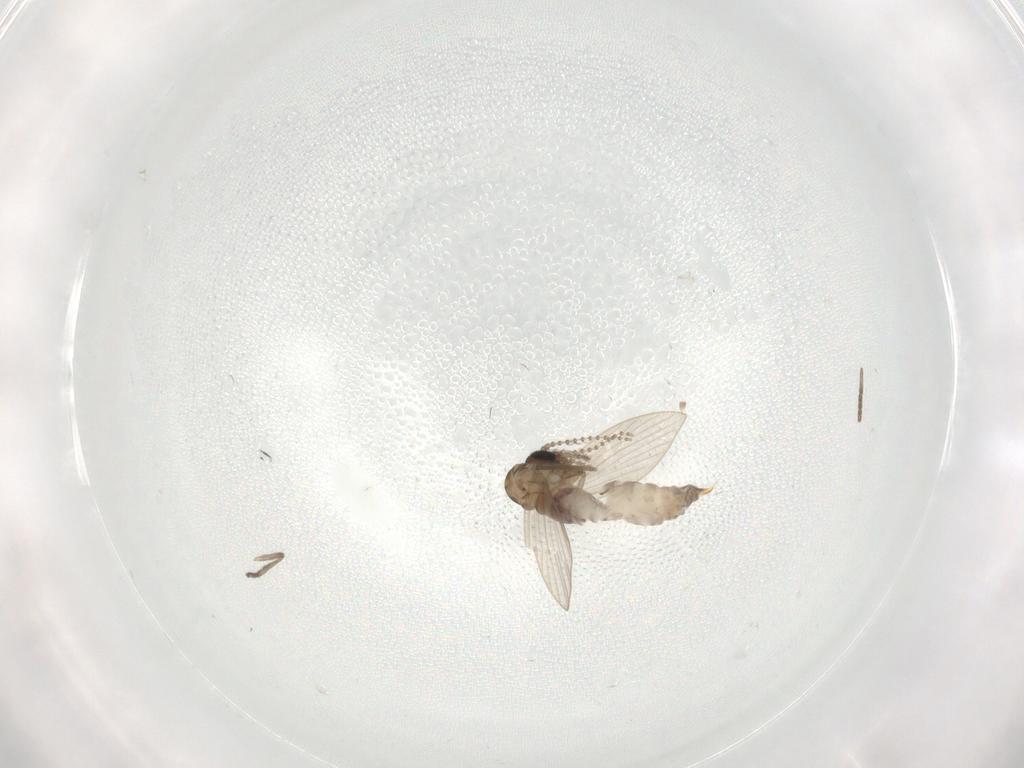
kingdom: Animalia
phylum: Arthropoda
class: Insecta
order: Diptera
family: Psychodidae
